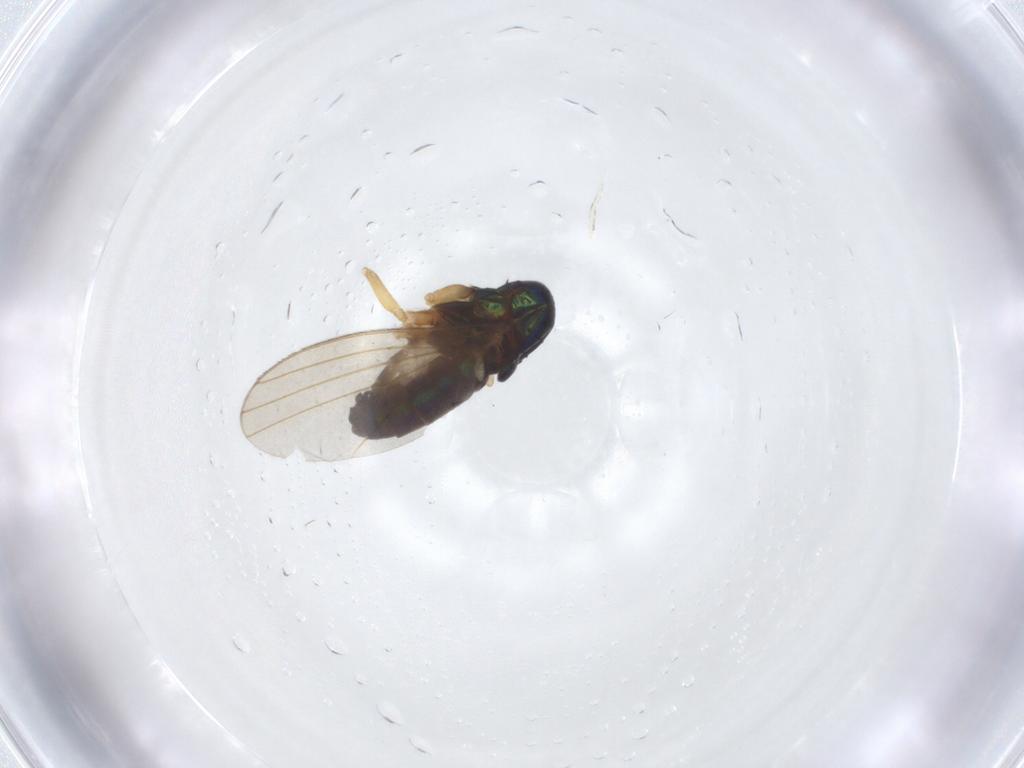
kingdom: Animalia
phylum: Arthropoda
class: Insecta
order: Diptera
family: Dolichopodidae
